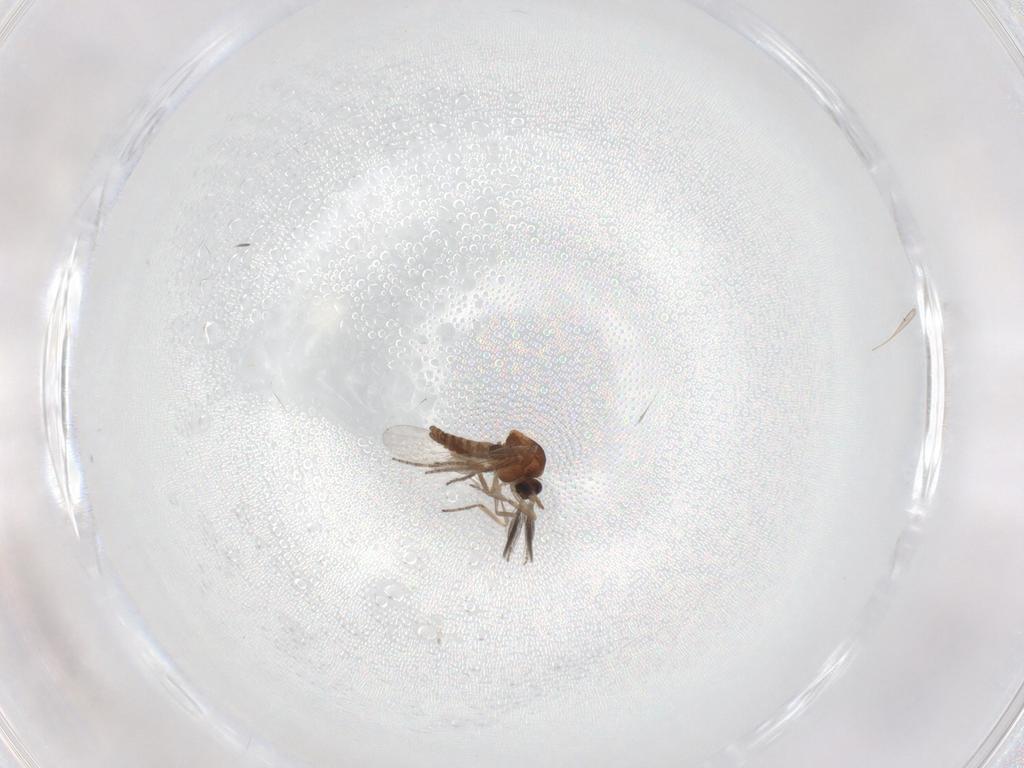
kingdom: Animalia
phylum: Arthropoda
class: Insecta
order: Diptera
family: Ceratopogonidae
